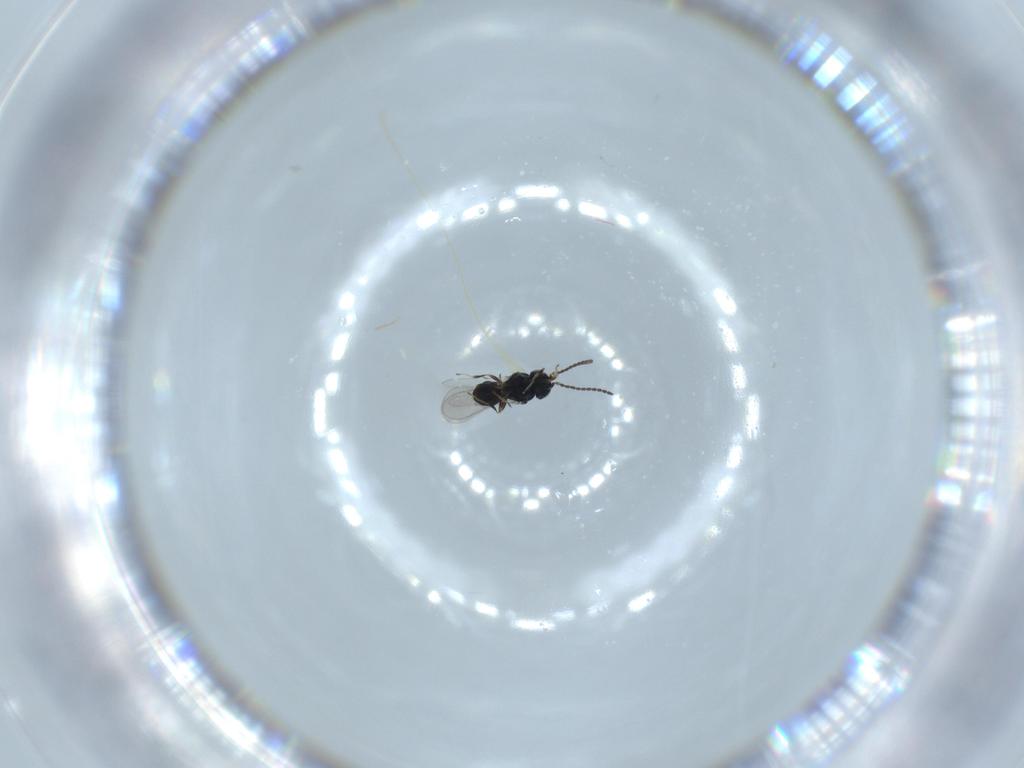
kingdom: Animalia
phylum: Arthropoda
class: Insecta
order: Hymenoptera
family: Scelionidae
